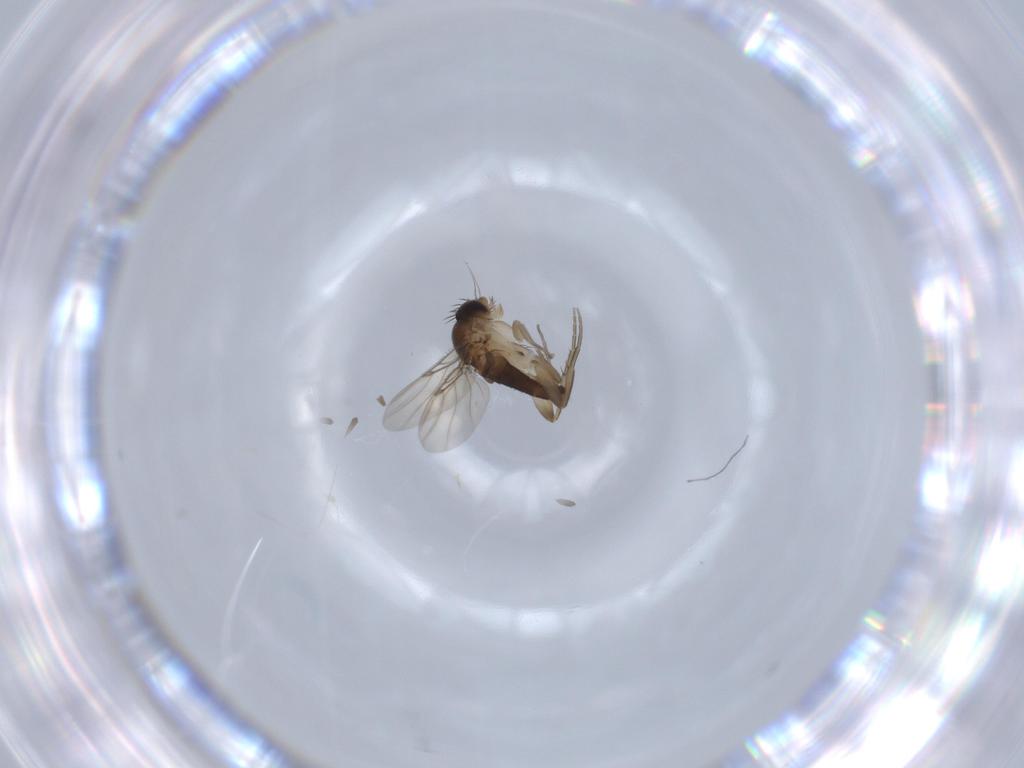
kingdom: Animalia
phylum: Arthropoda
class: Insecta
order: Diptera
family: Phoridae
